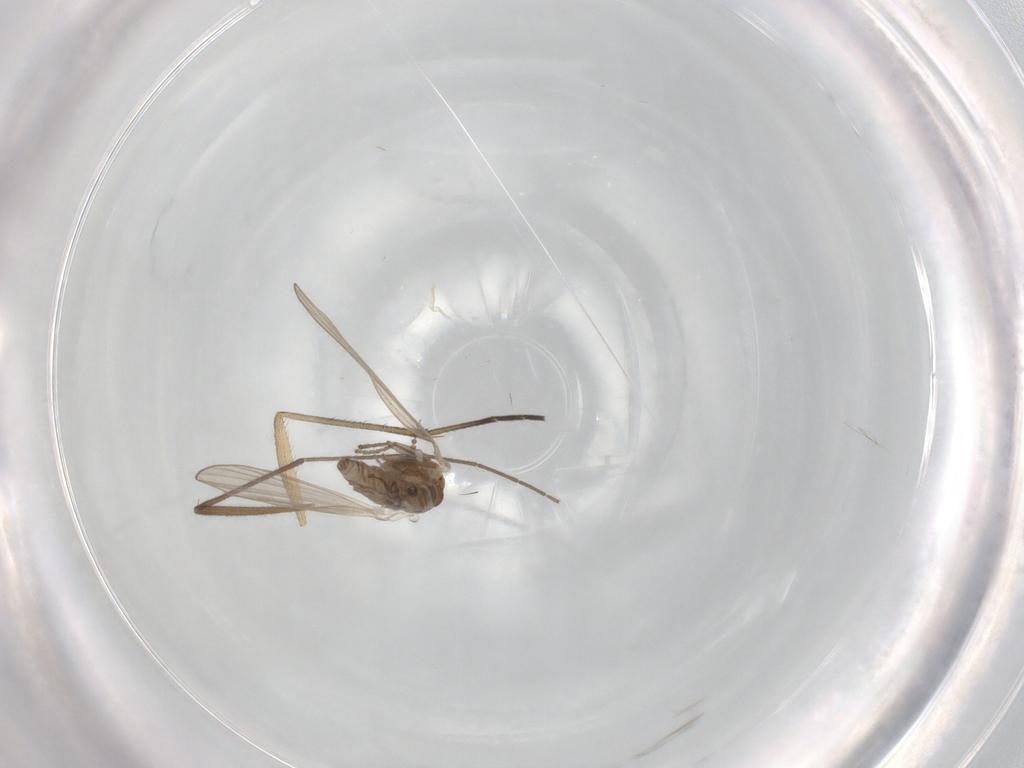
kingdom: Animalia
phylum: Arthropoda
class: Insecta
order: Diptera
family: Psychodidae
